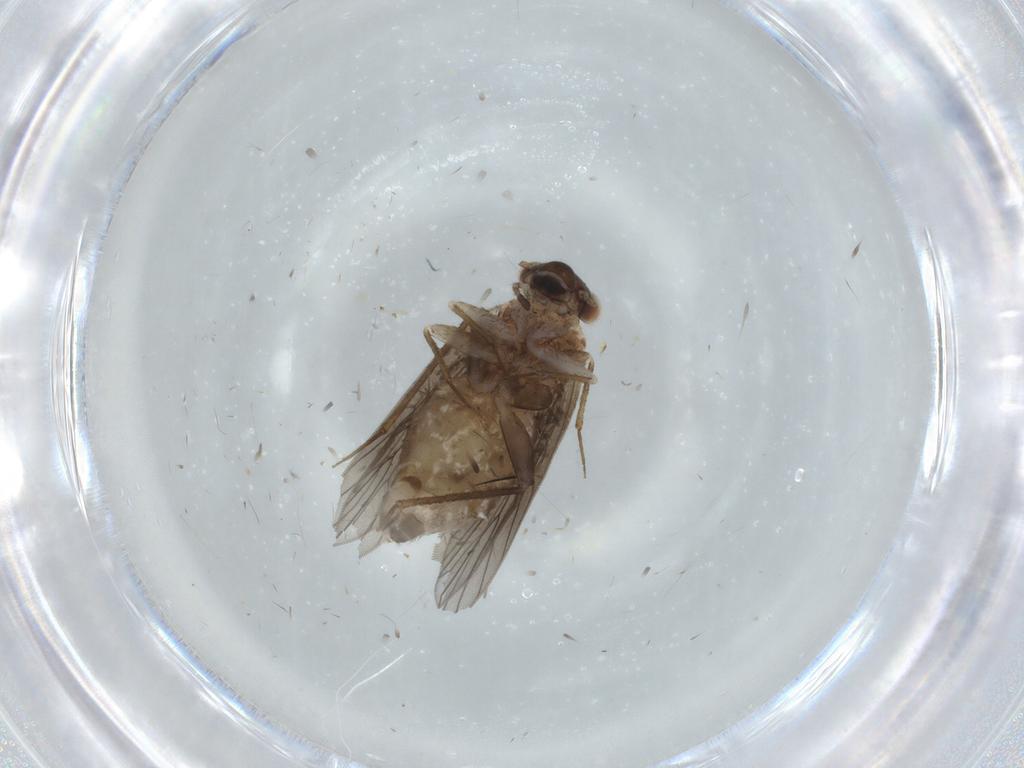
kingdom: Animalia
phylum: Arthropoda
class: Insecta
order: Psocodea
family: Lepidopsocidae
